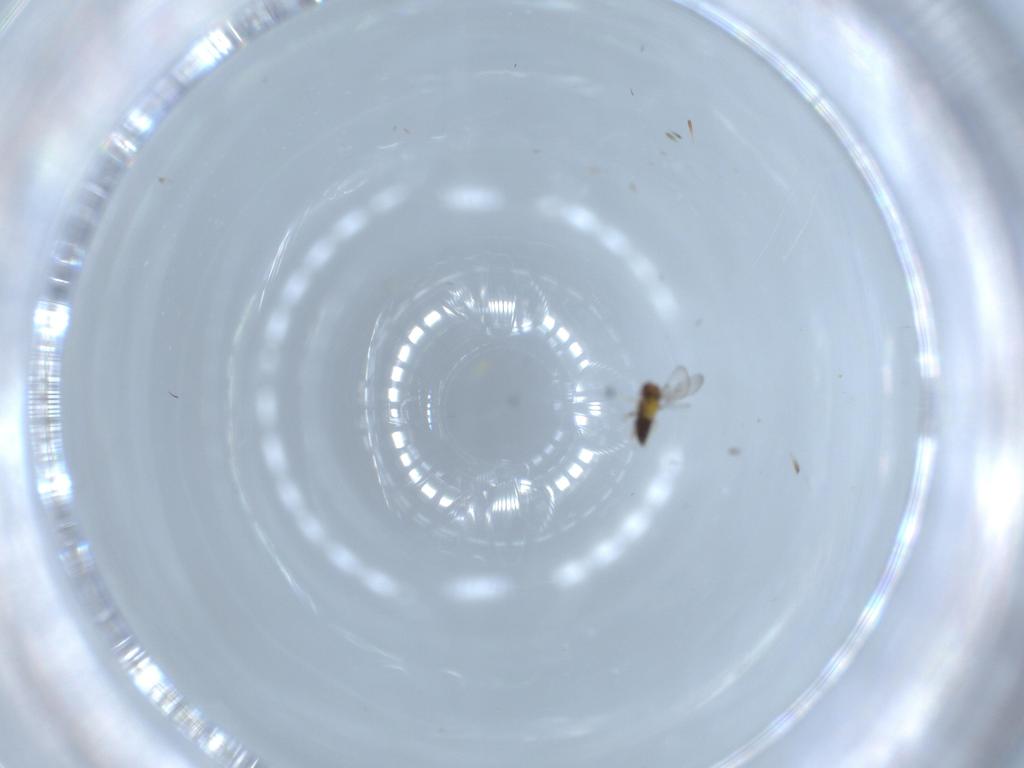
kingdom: Animalia
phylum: Arthropoda
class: Insecta
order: Hymenoptera
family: Trichogrammatidae
